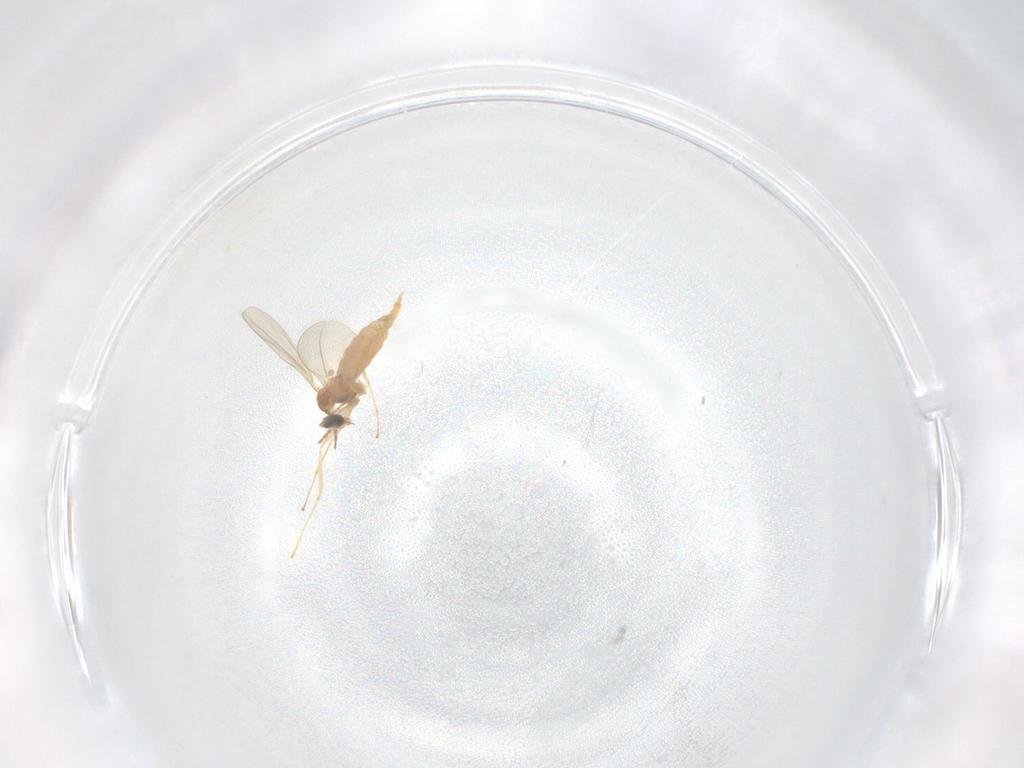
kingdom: Animalia
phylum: Arthropoda
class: Insecta
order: Diptera
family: Cecidomyiidae
